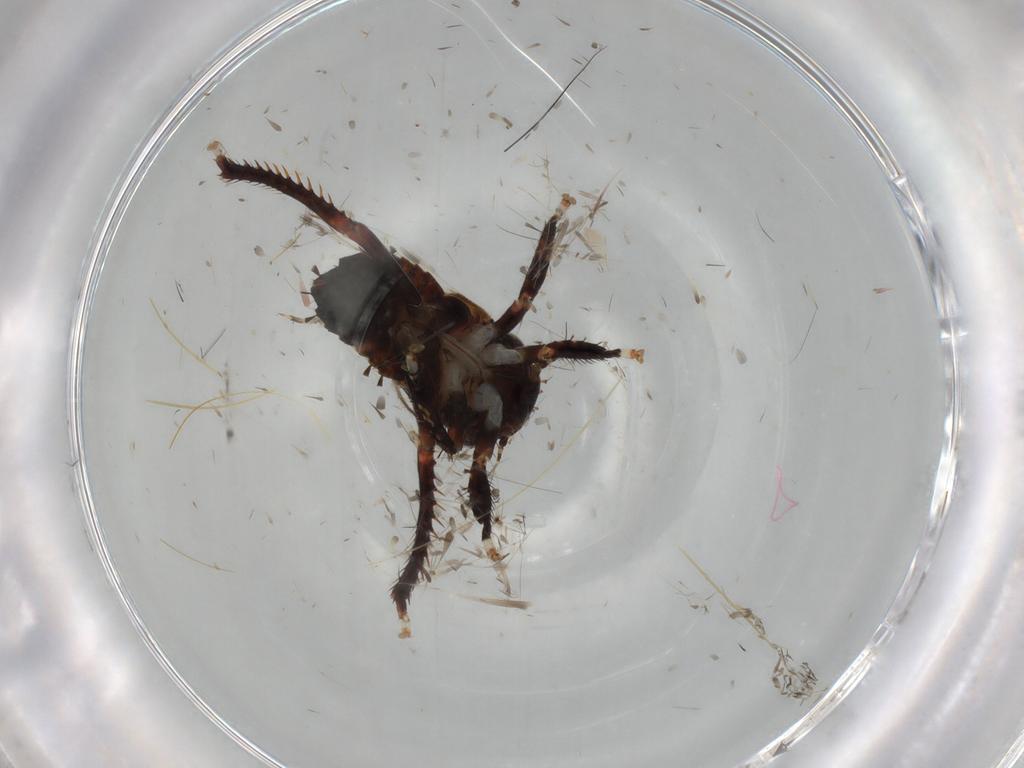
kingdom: Animalia
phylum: Arthropoda
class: Insecta
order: Hemiptera
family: Cicadellidae
